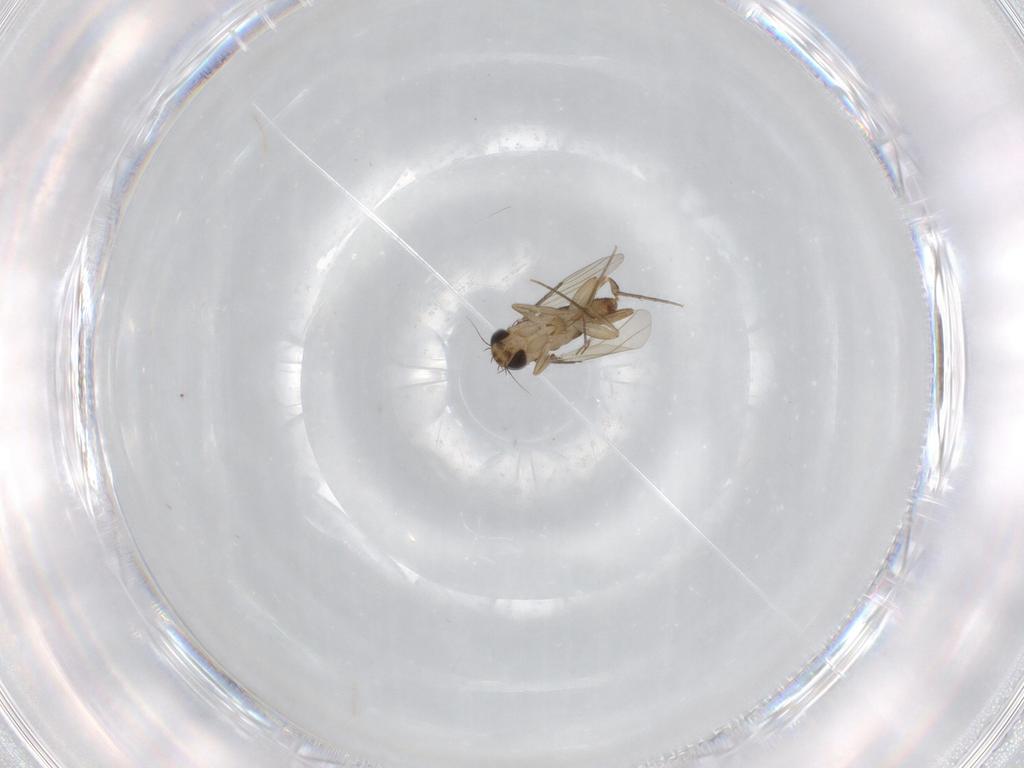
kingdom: Animalia
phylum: Arthropoda
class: Insecta
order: Diptera
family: Phoridae
